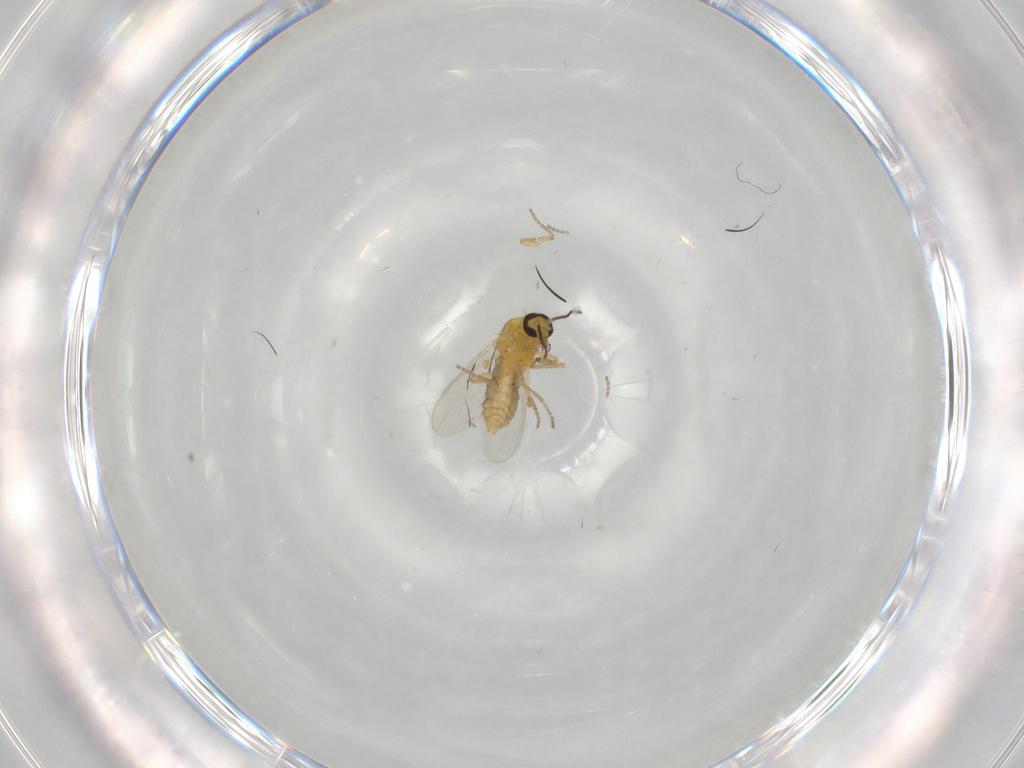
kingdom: Animalia
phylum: Arthropoda
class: Insecta
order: Diptera
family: Ceratopogonidae
